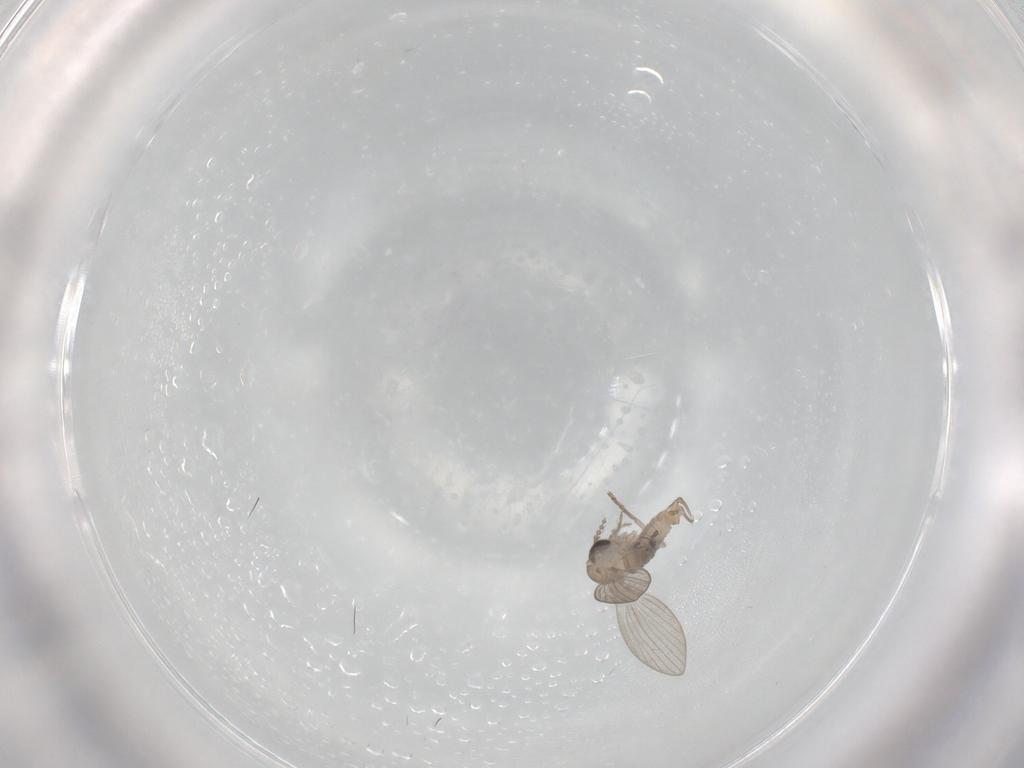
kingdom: Animalia
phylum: Arthropoda
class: Insecta
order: Diptera
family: Psychodidae
